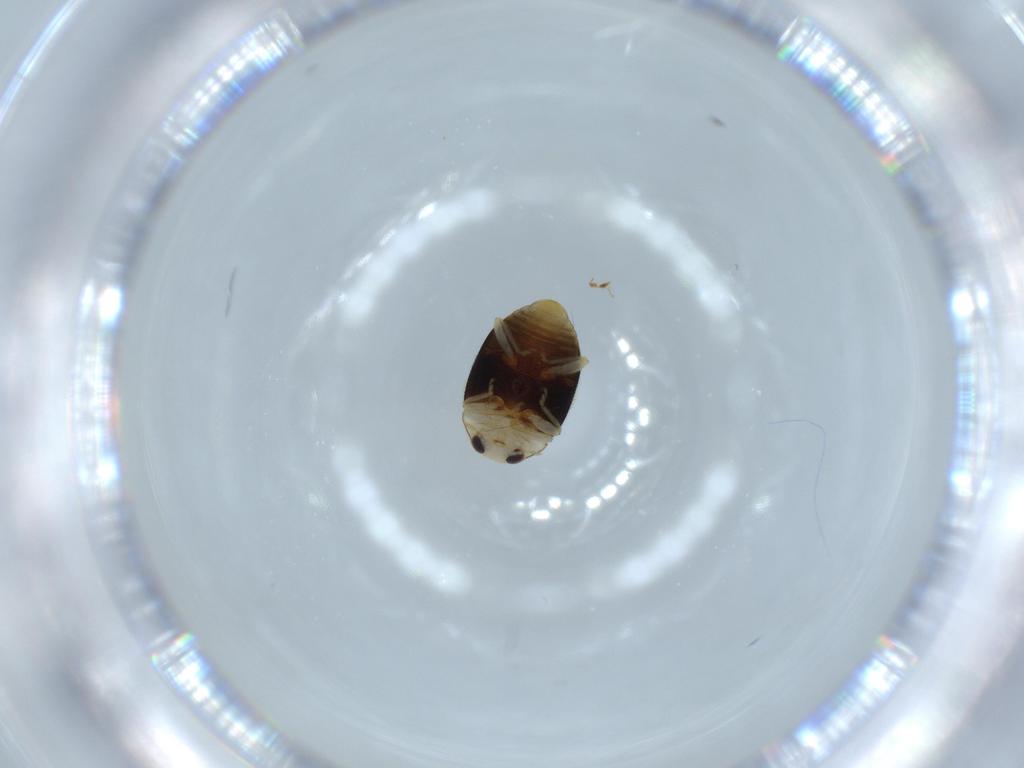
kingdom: Animalia
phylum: Arthropoda
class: Insecta
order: Coleoptera
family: Coccinellidae
